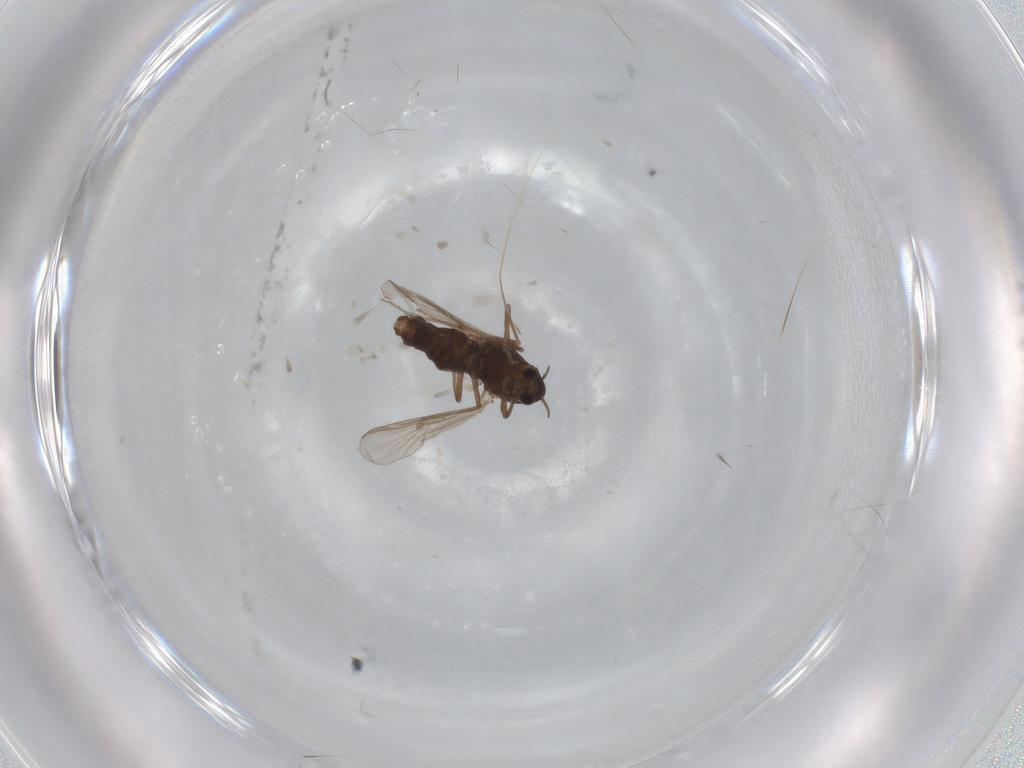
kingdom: Animalia
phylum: Arthropoda
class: Insecta
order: Diptera
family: Chironomidae
